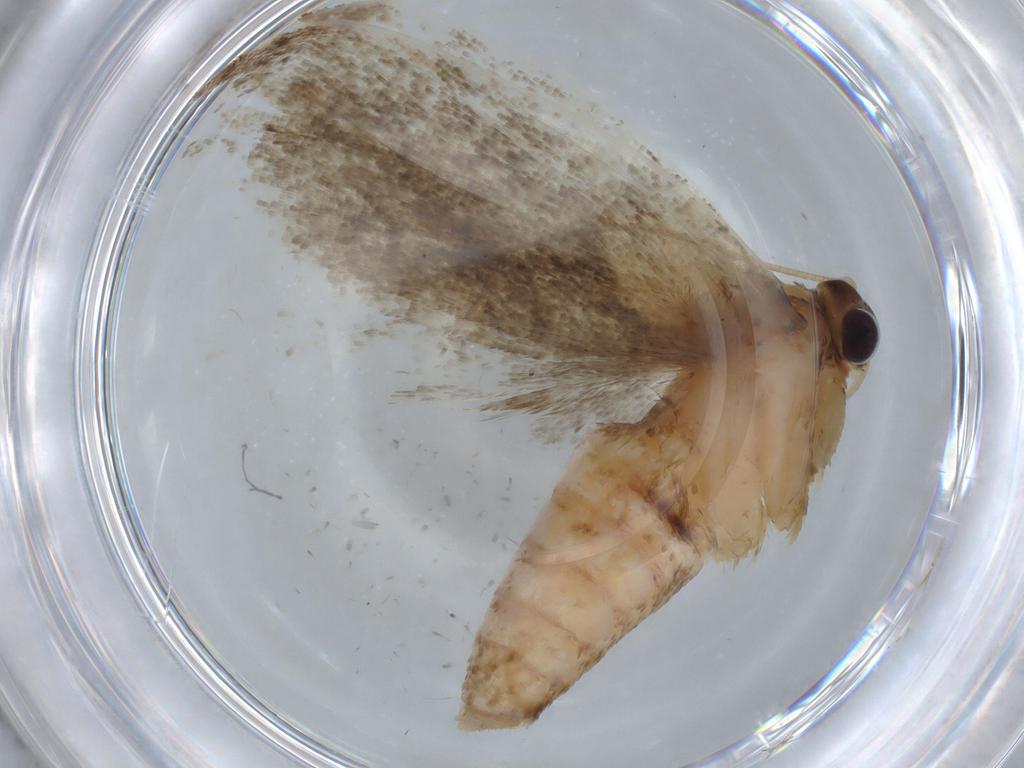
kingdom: Animalia
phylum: Arthropoda
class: Insecta
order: Lepidoptera
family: Blastobasidae
